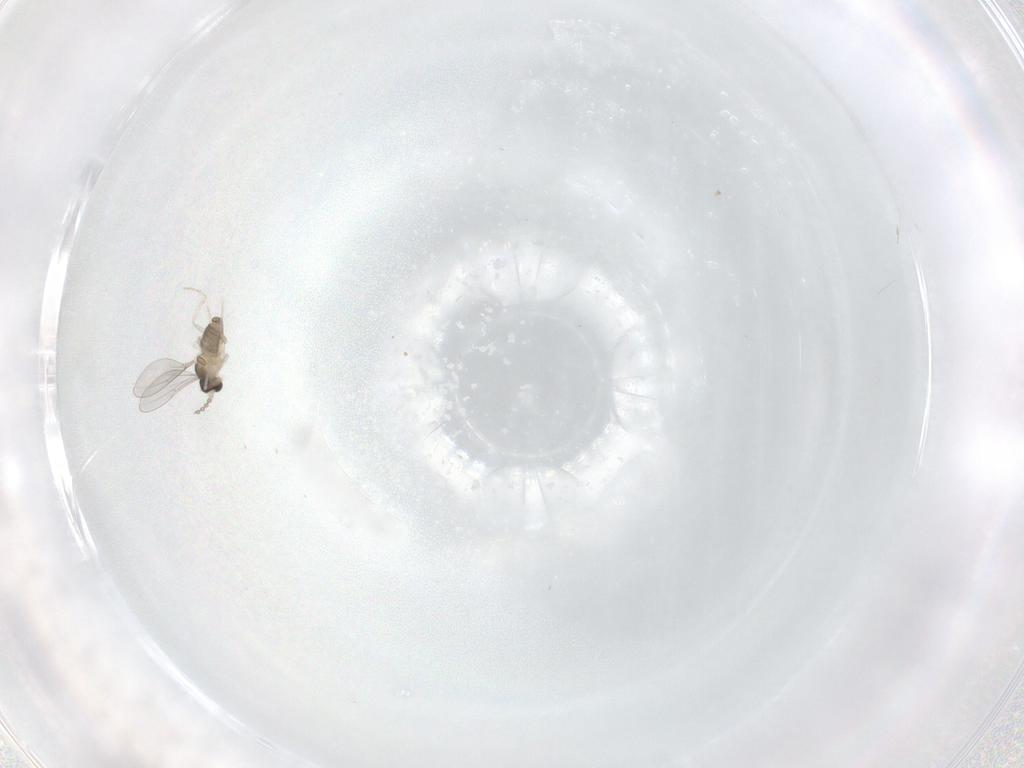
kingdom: Animalia
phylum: Arthropoda
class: Insecta
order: Diptera
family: Cecidomyiidae
